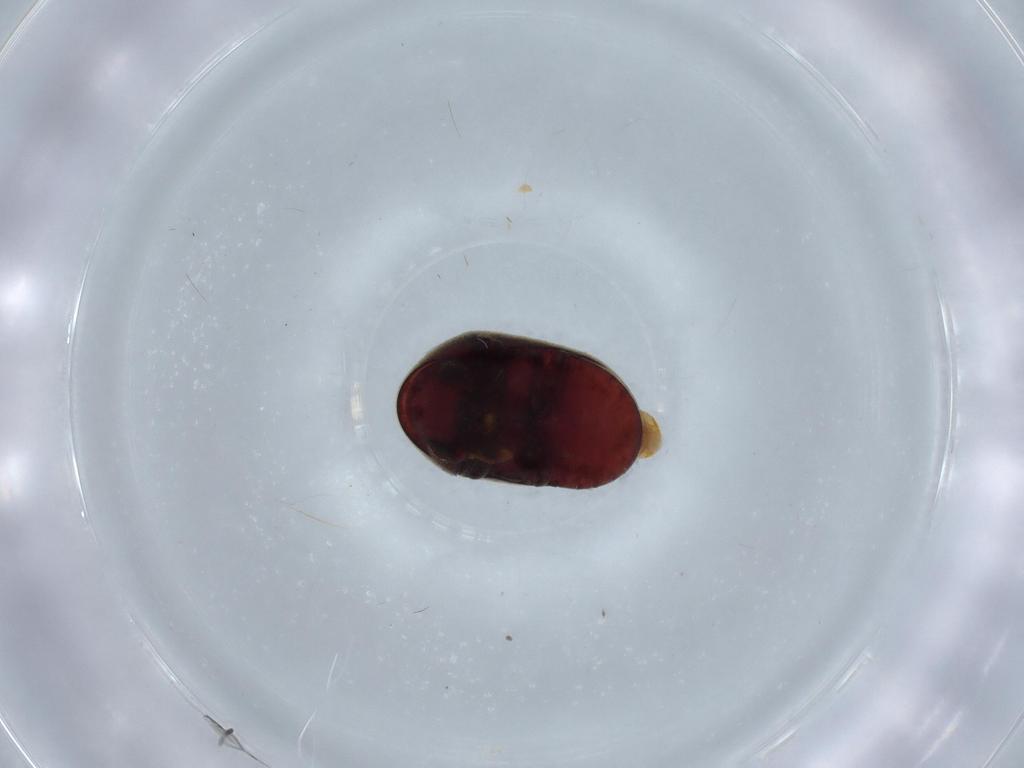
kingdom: Animalia
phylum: Arthropoda
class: Insecta
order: Coleoptera
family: Ptinidae
